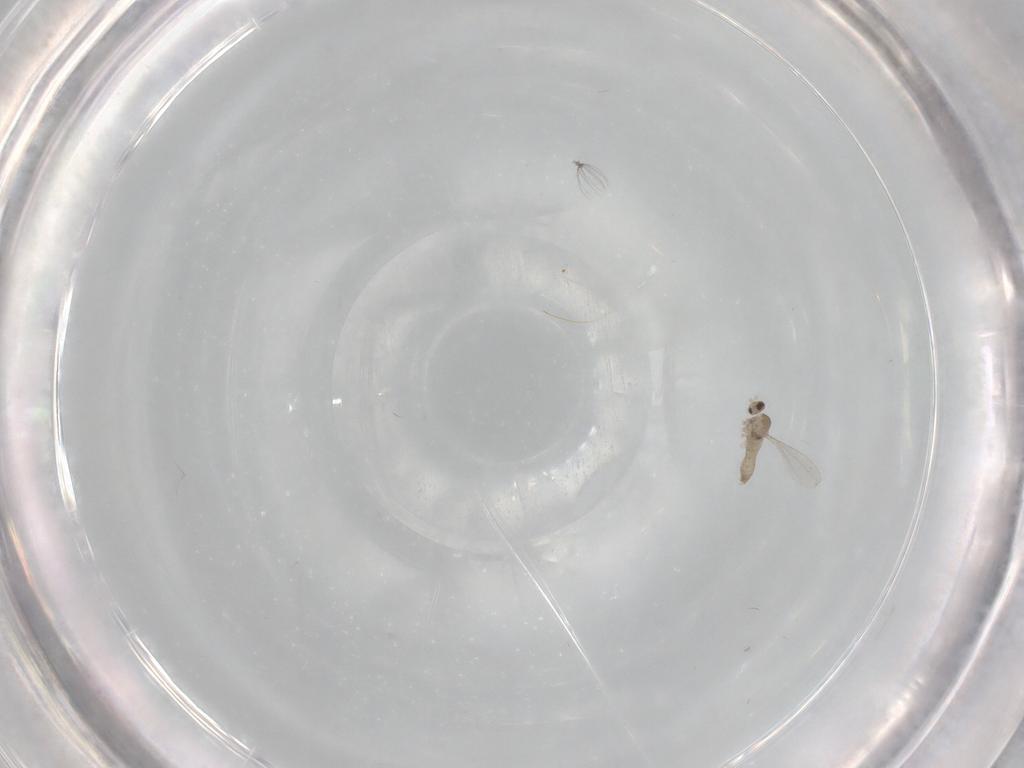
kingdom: Animalia
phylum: Arthropoda
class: Insecta
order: Diptera
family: Cecidomyiidae
